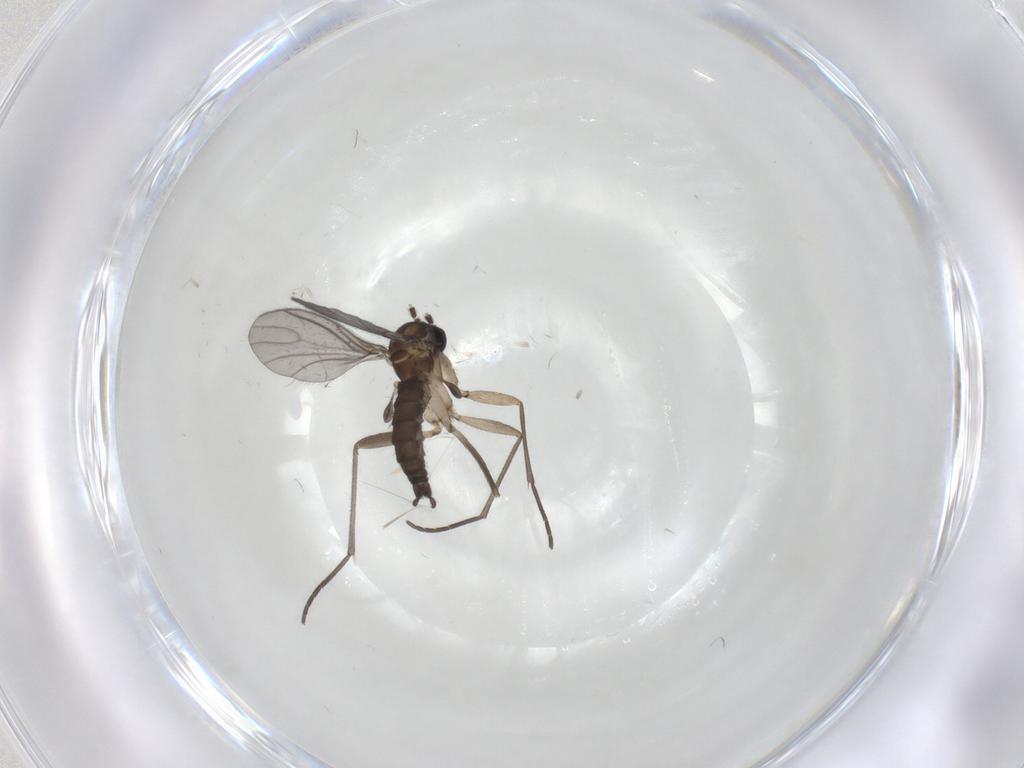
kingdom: Animalia
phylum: Arthropoda
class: Insecta
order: Diptera
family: Sciaridae
